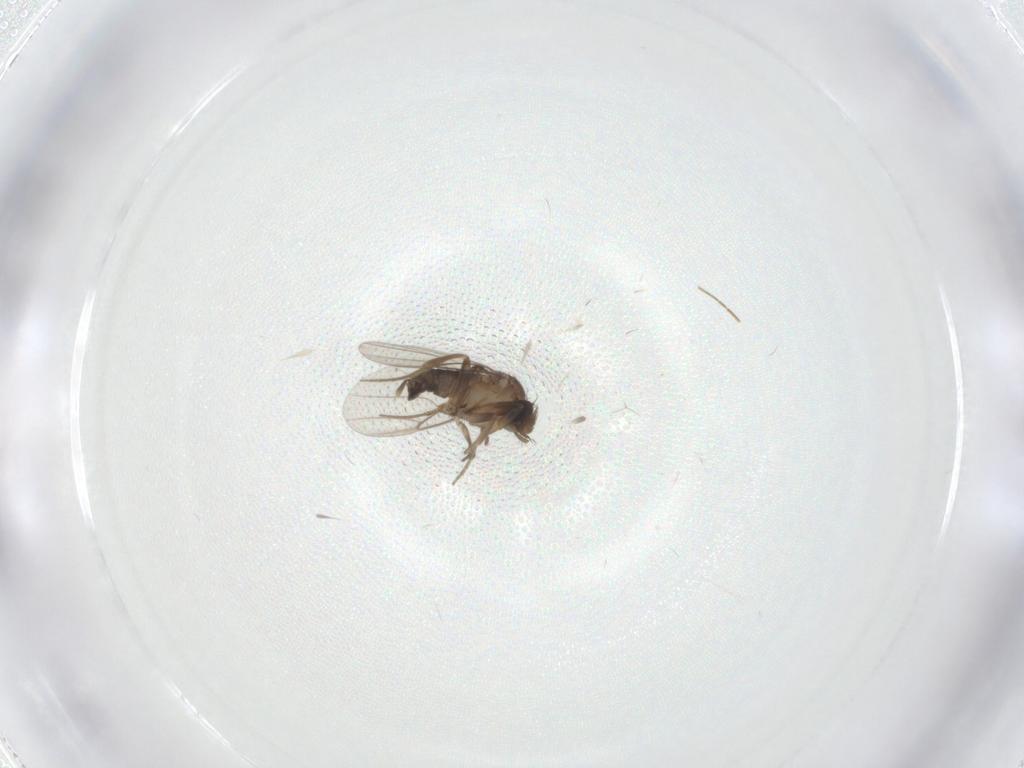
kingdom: Animalia
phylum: Arthropoda
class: Insecta
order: Diptera
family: Phoridae
